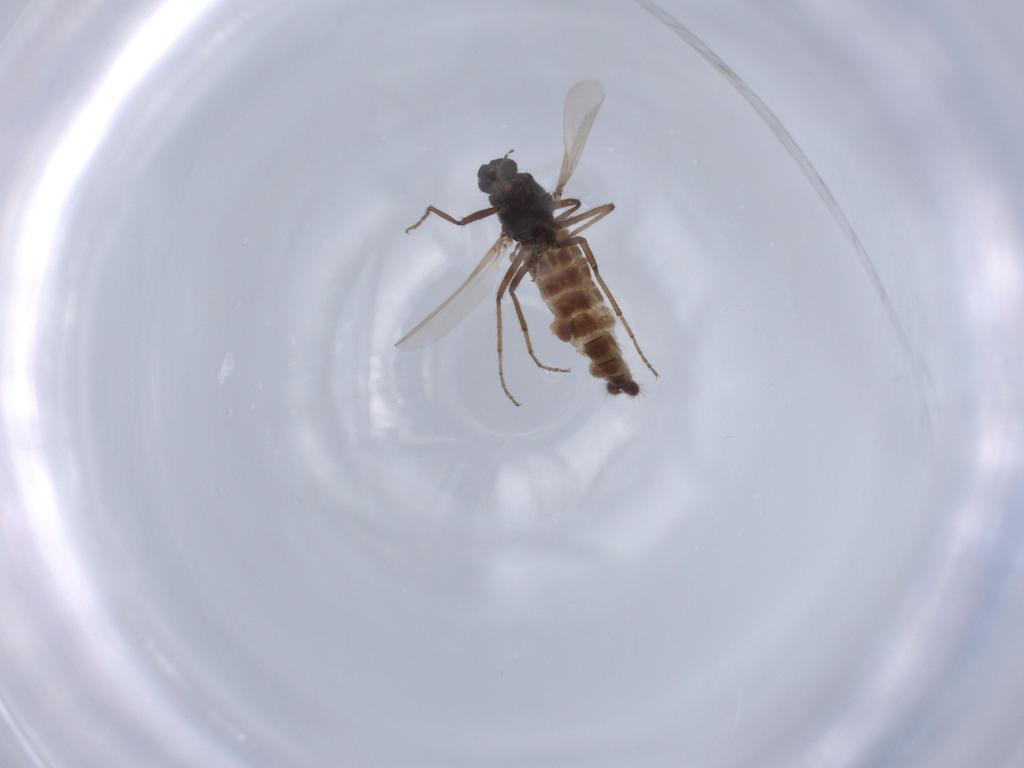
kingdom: Animalia
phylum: Arthropoda
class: Insecta
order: Diptera
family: Ceratopogonidae
